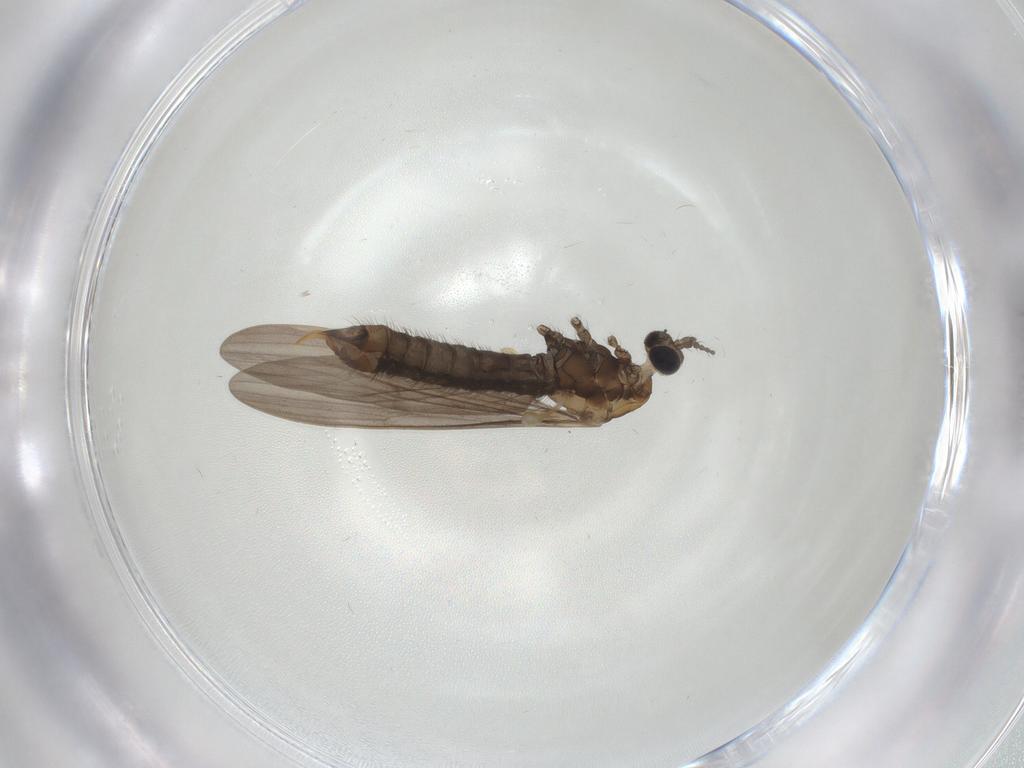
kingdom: Animalia
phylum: Arthropoda
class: Insecta
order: Diptera
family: Limoniidae
